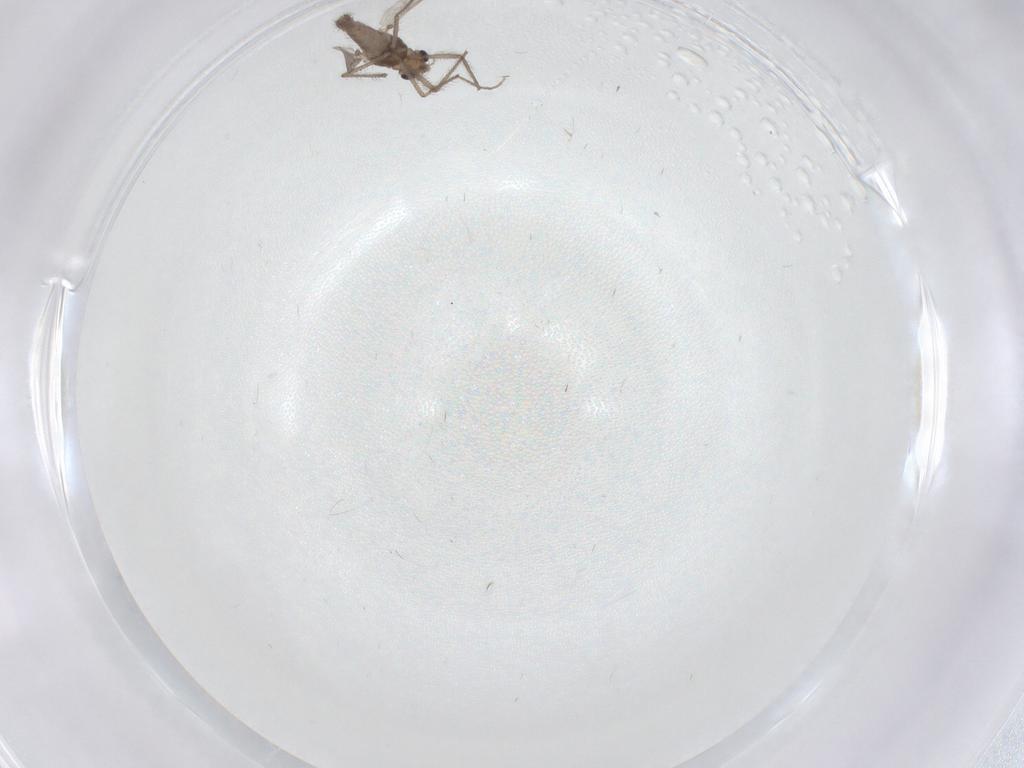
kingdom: Animalia
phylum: Arthropoda
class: Insecta
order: Diptera
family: Chironomidae
